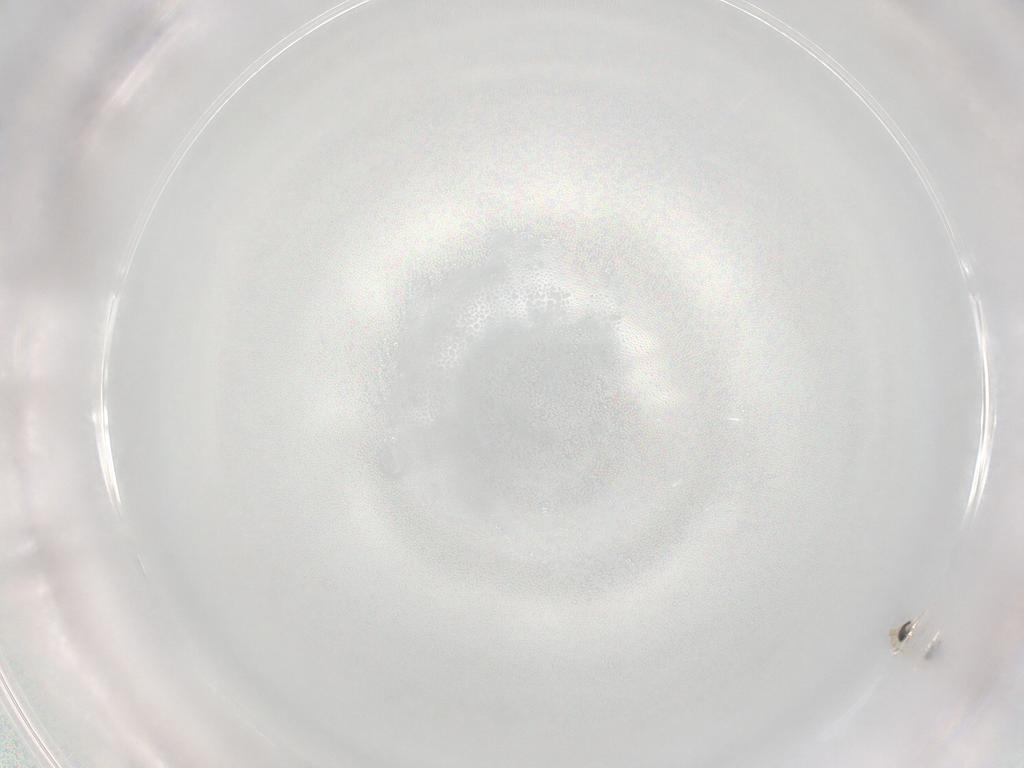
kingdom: Animalia
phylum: Arthropoda
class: Insecta
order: Diptera
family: Cecidomyiidae
